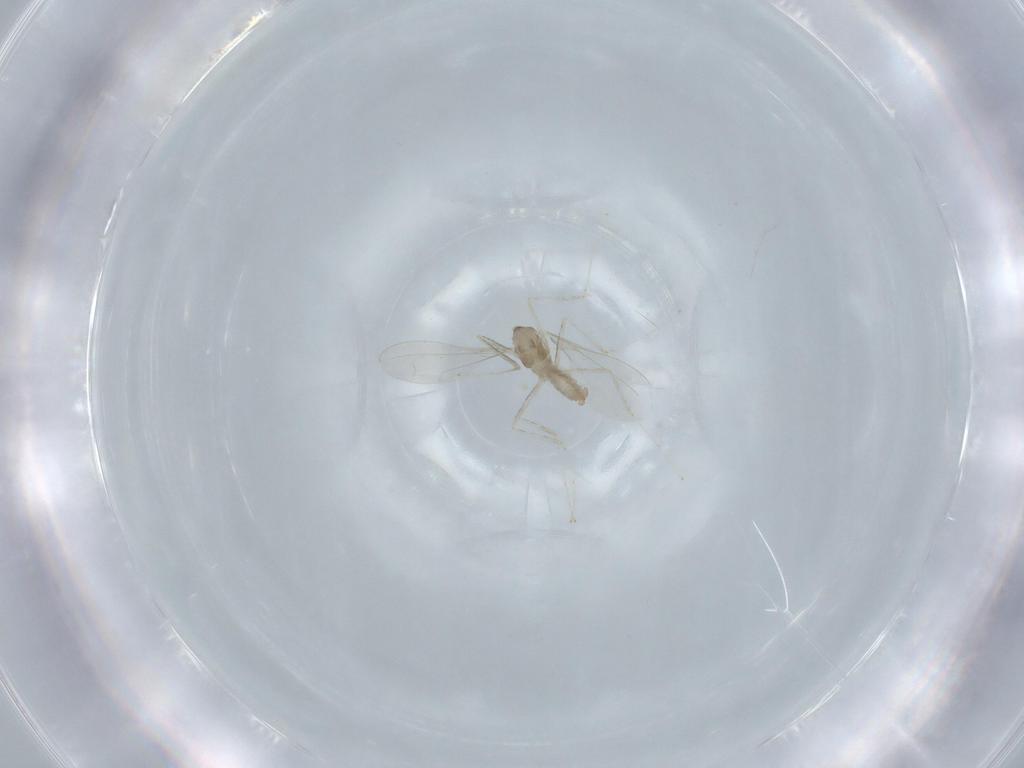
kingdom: Animalia
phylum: Arthropoda
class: Insecta
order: Diptera
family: Cecidomyiidae
